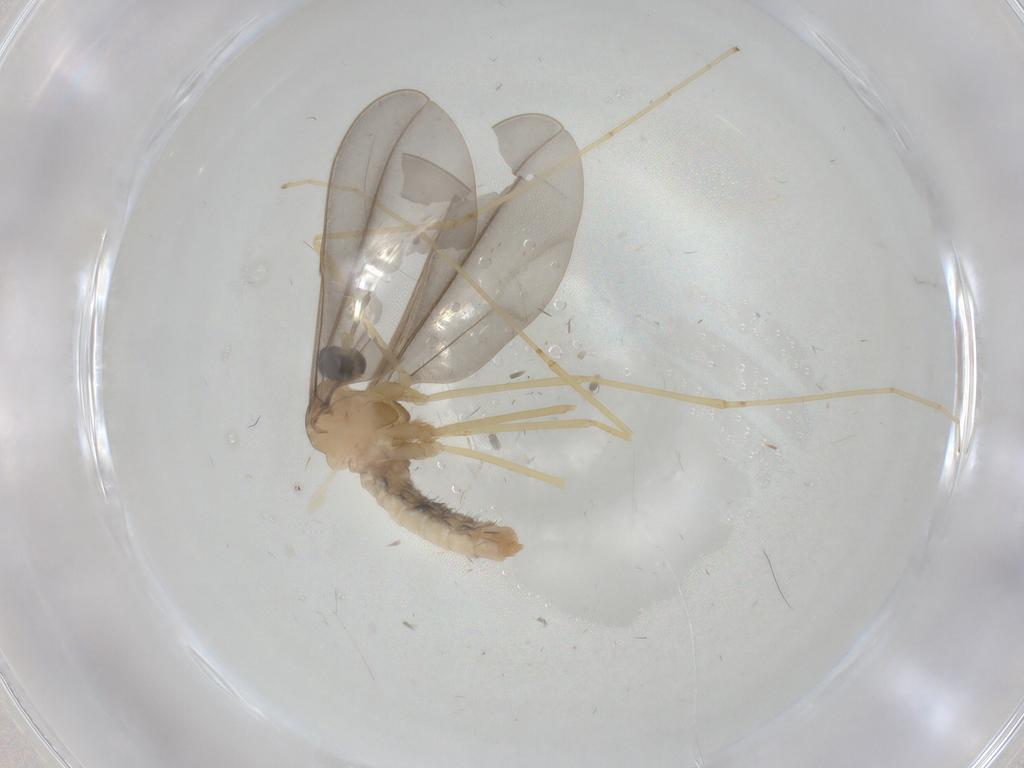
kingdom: Animalia
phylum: Arthropoda
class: Insecta
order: Diptera
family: Cecidomyiidae
